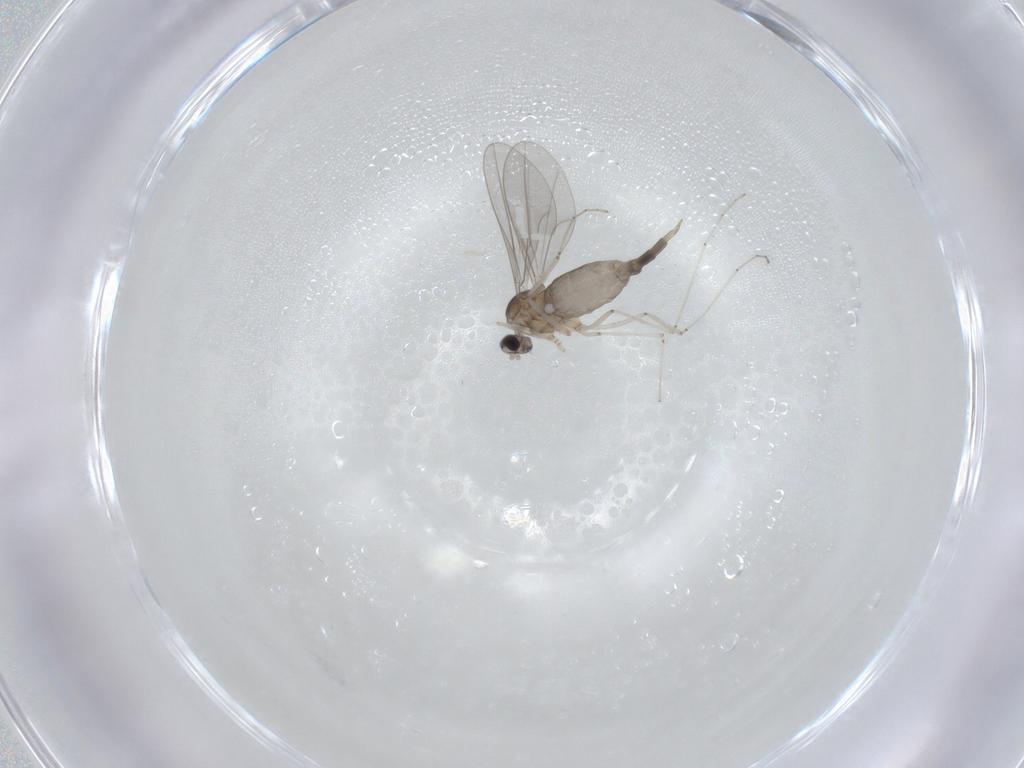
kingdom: Animalia
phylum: Arthropoda
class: Insecta
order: Diptera
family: Cecidomyiidae
